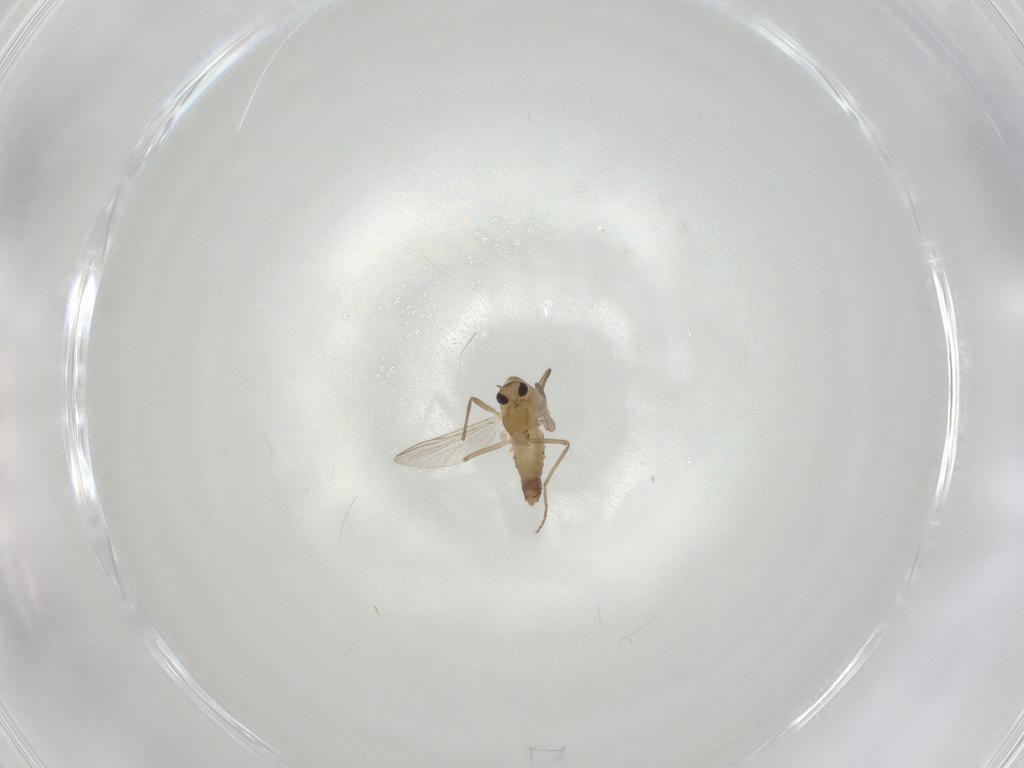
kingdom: Animalia
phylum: Arthropoda
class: Insecta
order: Diptera
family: Chironomidae
